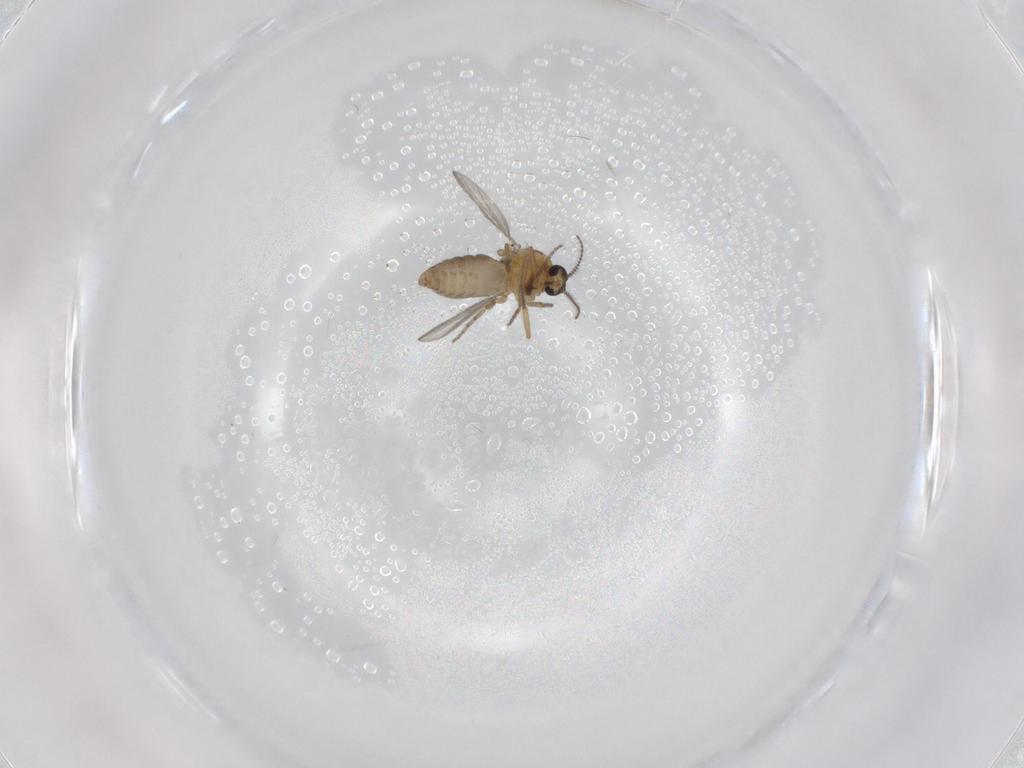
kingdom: Animalia
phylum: Arthropoda
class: Insecta
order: Diptera
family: Ceratopogonidae
